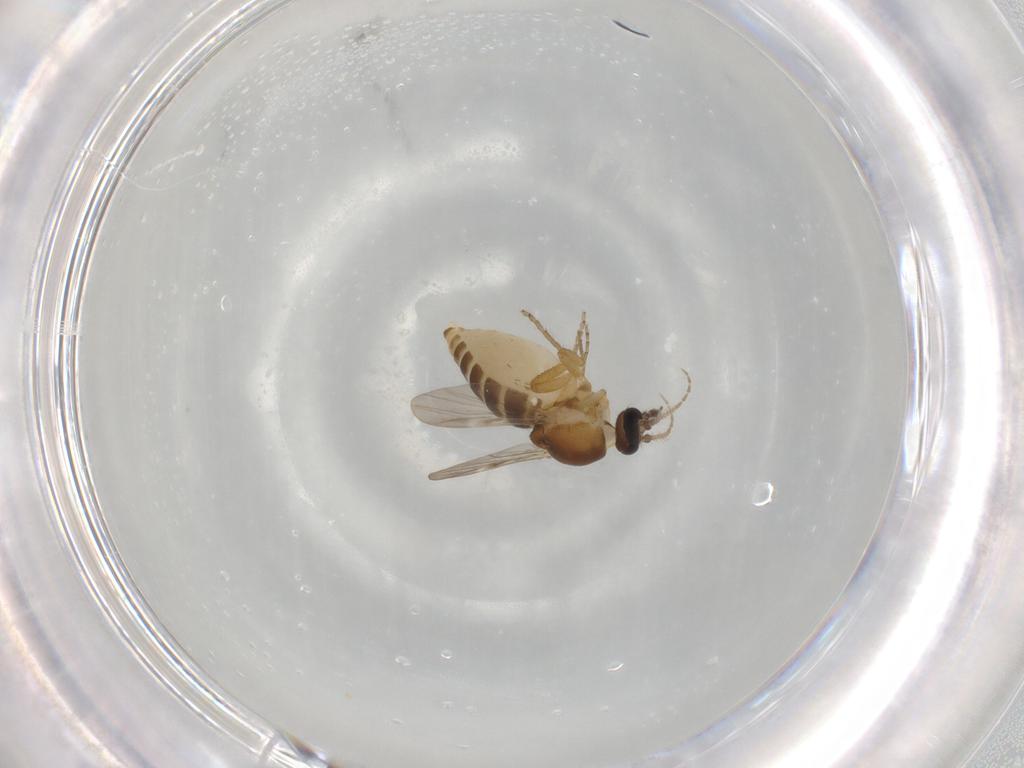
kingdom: Animalia
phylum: Arthropoda
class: Insecta
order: Diptera
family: Ceratopogonidae
